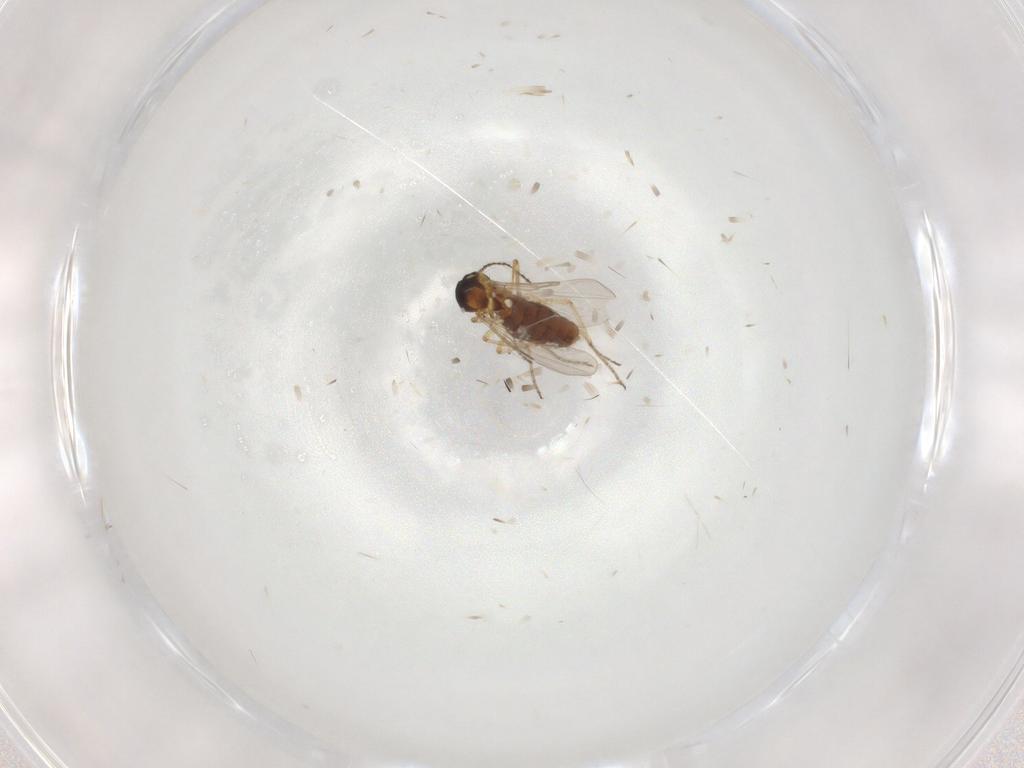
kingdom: Animalia
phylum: Arthropoda
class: Insecta
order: Diptera
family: Ceratopogonidae
